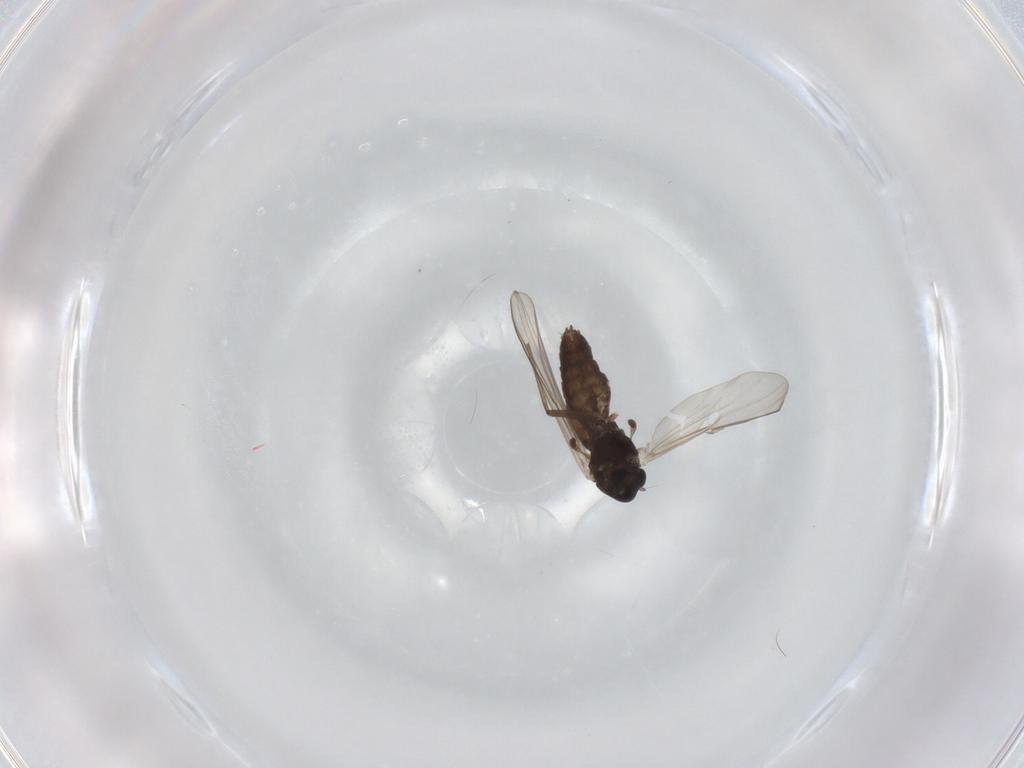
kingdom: Animalia
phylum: Arthropoda
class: Insecta
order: Diptera
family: Chironomidae
